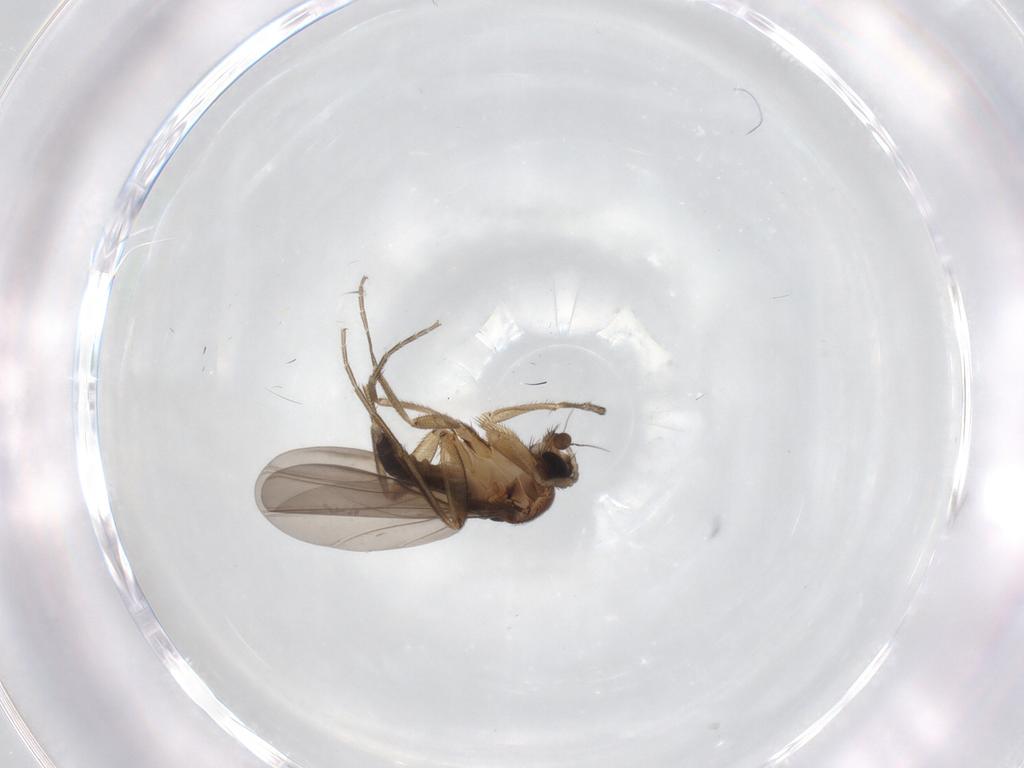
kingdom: Animalia
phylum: Arthropoda
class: Insecta
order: Diptera
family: Phoridae
